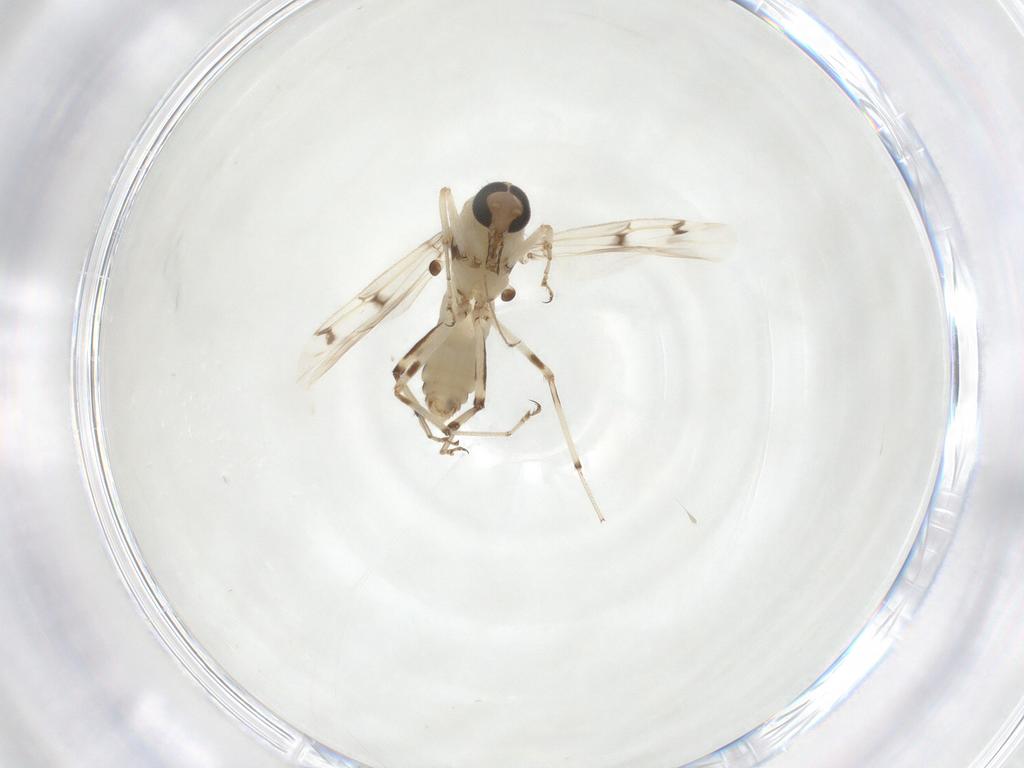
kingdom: Animalia
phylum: Arthropoda
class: Insecta
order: Diptera
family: Ceratopogonidae
